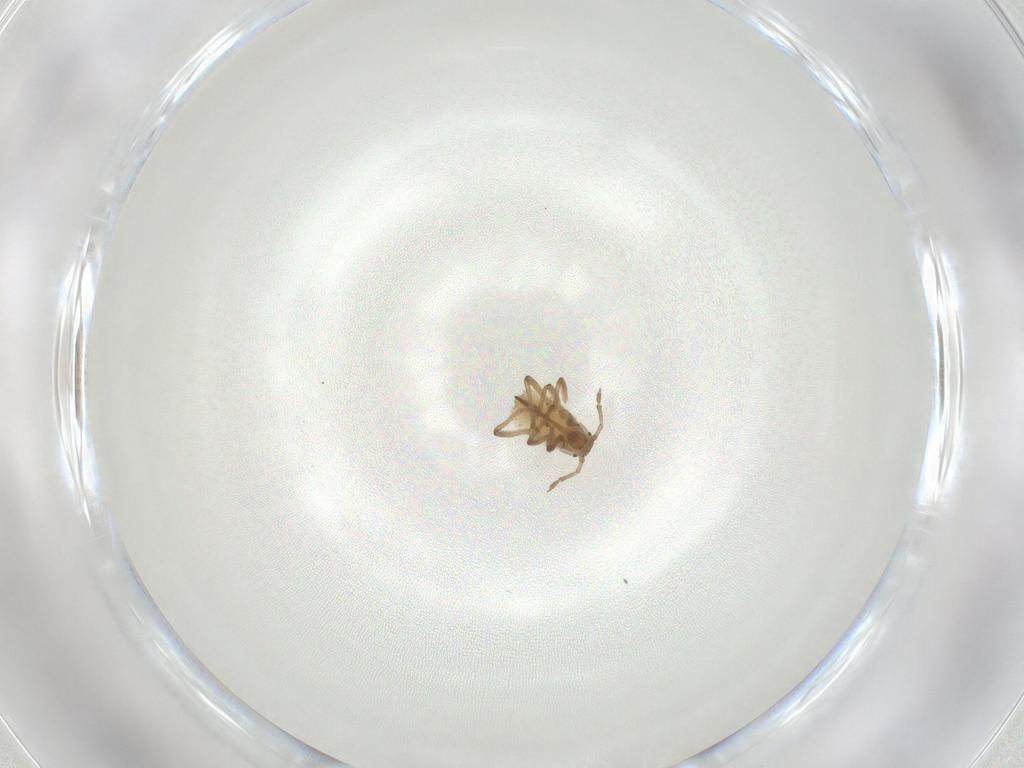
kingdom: Animalia
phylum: Arthropoda
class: Insecta
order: Hemiptera
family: Aphididae
